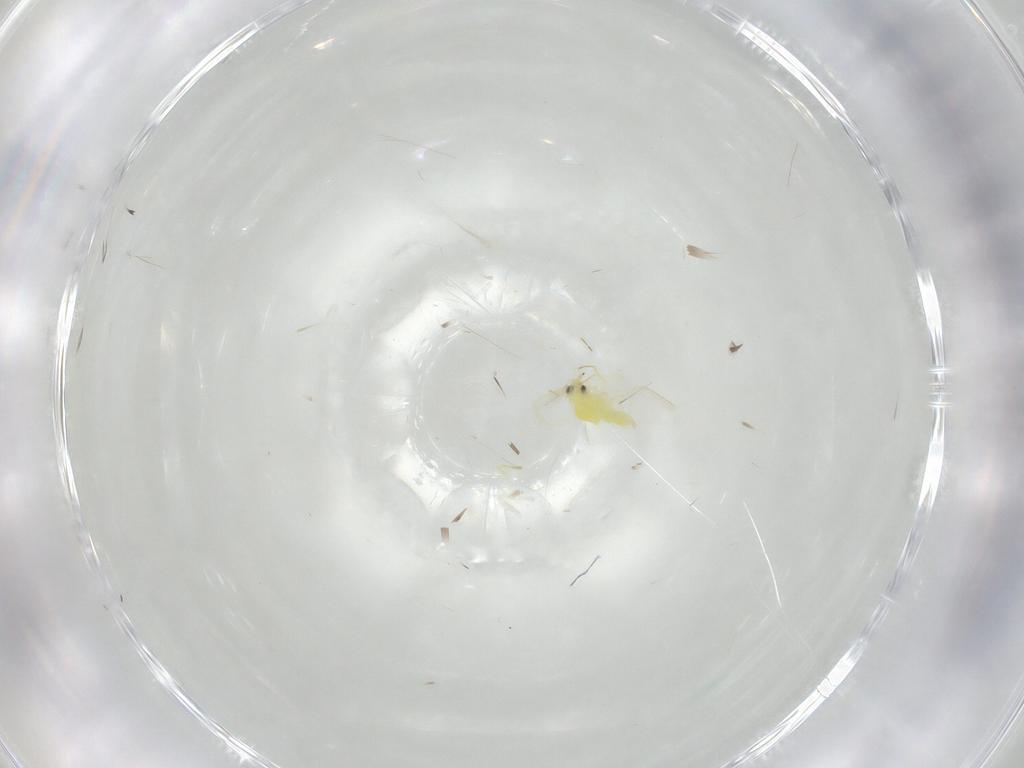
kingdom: Animalia
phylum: Arthropoda
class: Insecta
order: Hemiptera
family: Aleyrodidae
